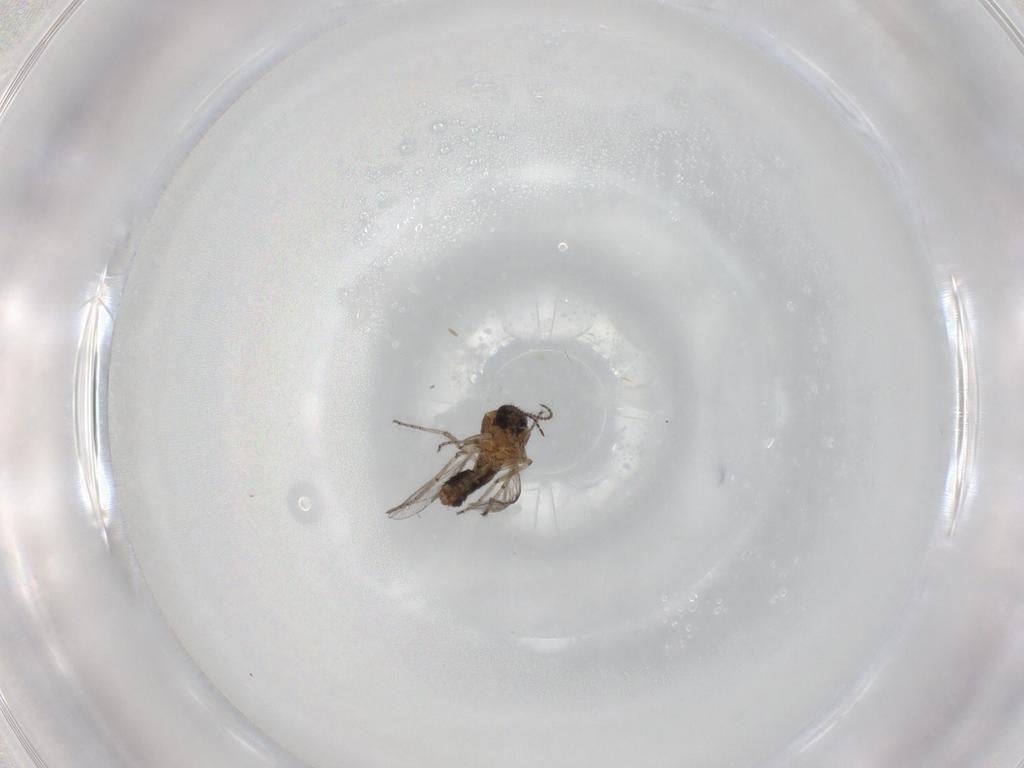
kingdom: Animalia
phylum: Arthropoda
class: Insecta
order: Diptera
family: Ceratopogonidae
